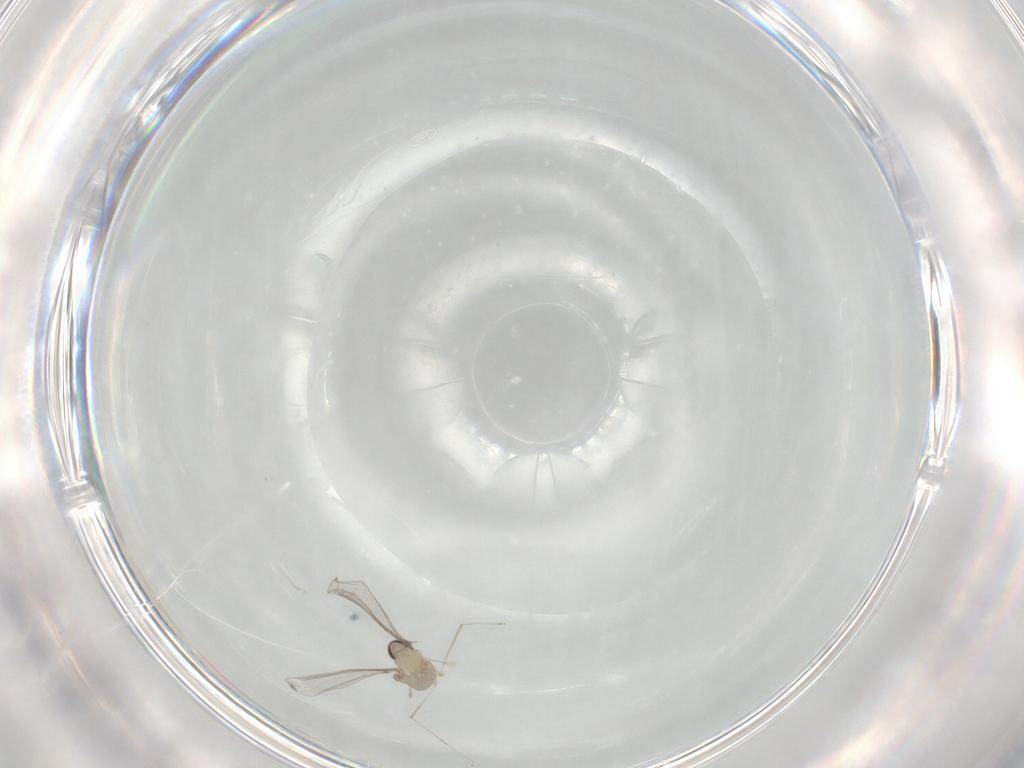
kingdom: Animalia
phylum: Arthropoda
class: Insecta
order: Diptera
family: Cecidomyiidae
